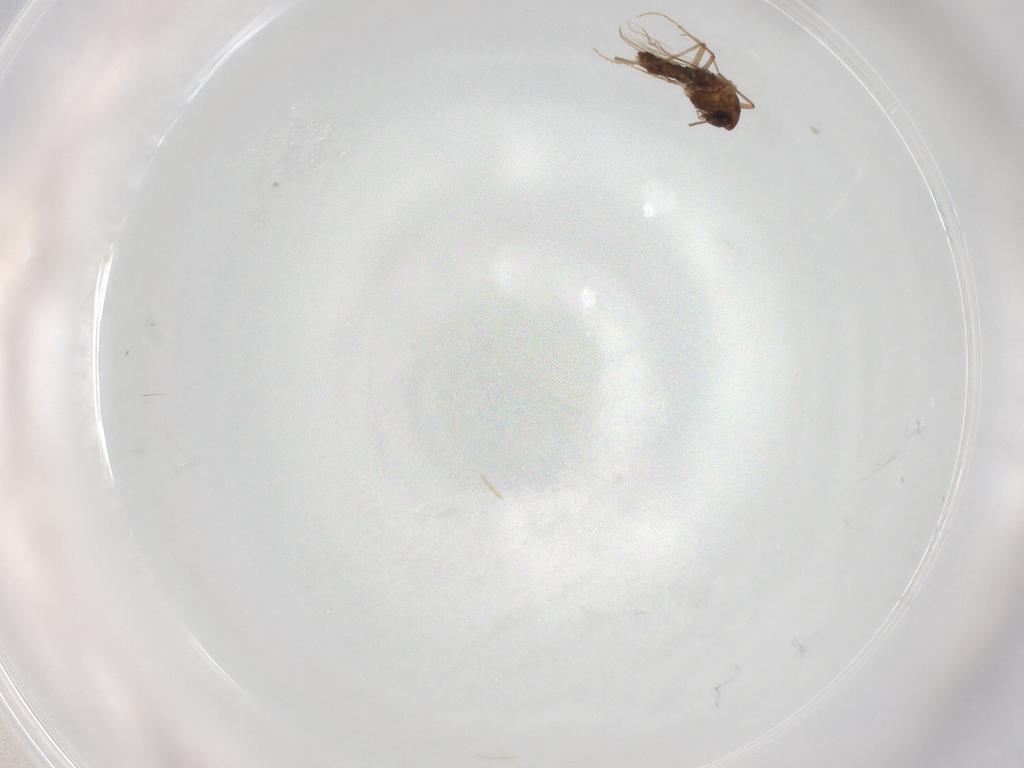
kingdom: Animalia
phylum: Arthropoda
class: Insecta
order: Diptera
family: Chironomidae
